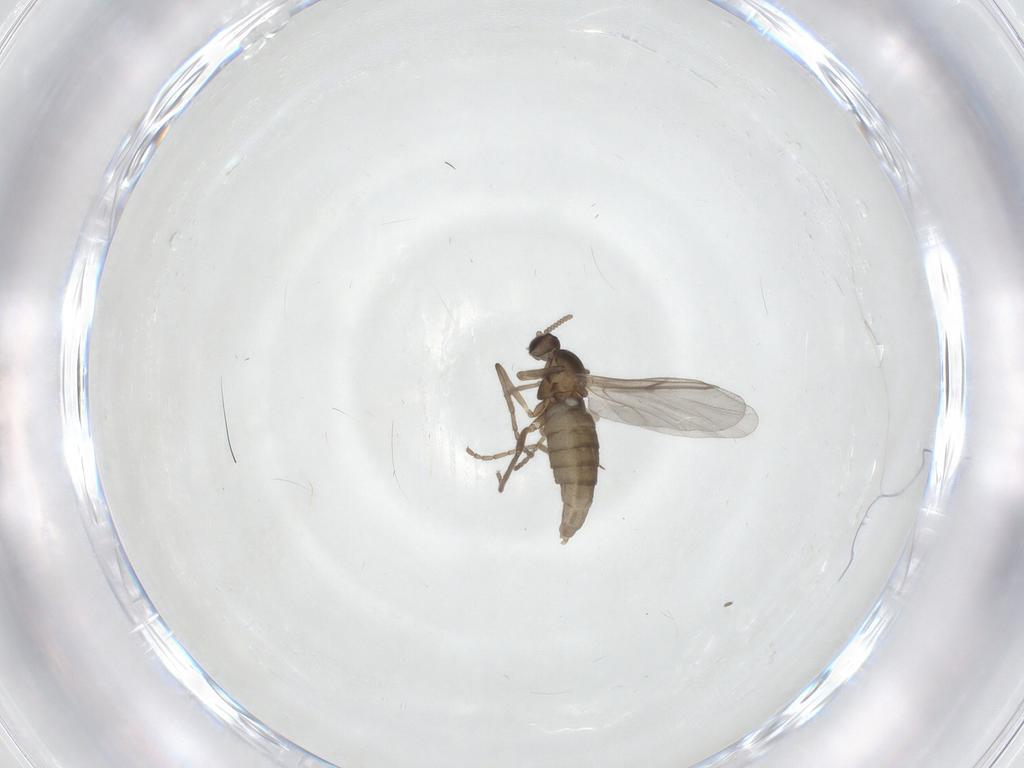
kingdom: Animalia
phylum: Arthropoda
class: Insecta
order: Diptera
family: Cecidomyiidae
